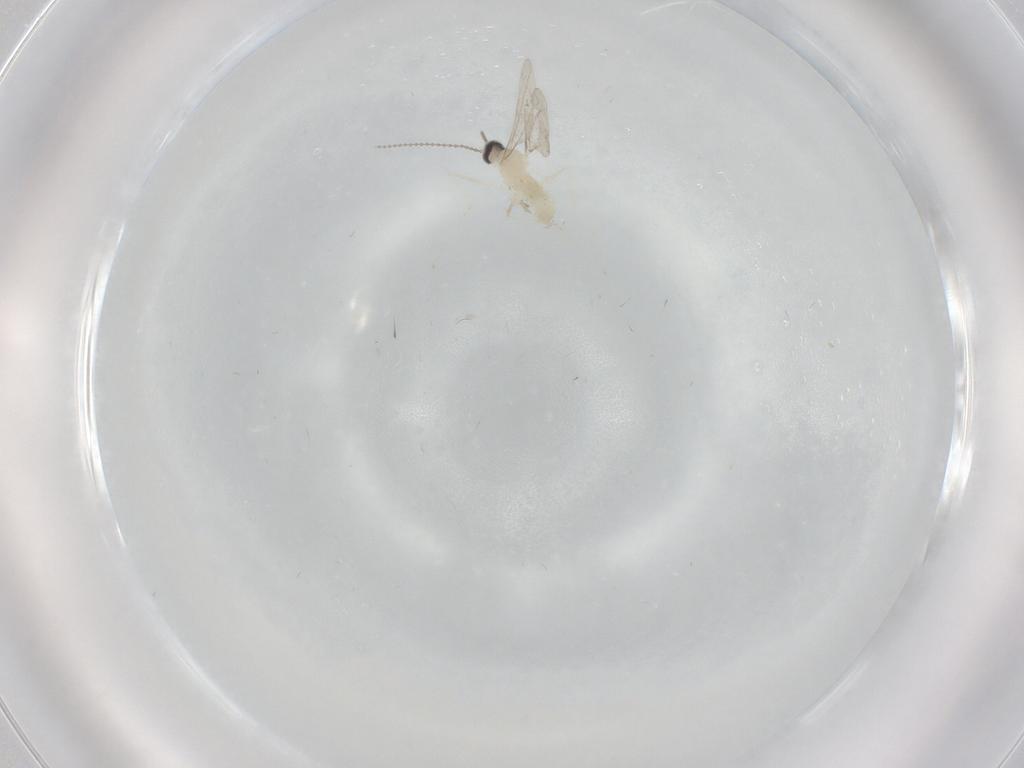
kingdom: Animalia
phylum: Arthropoda
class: Insecta
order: Diptera
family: Cecidomyiidae
